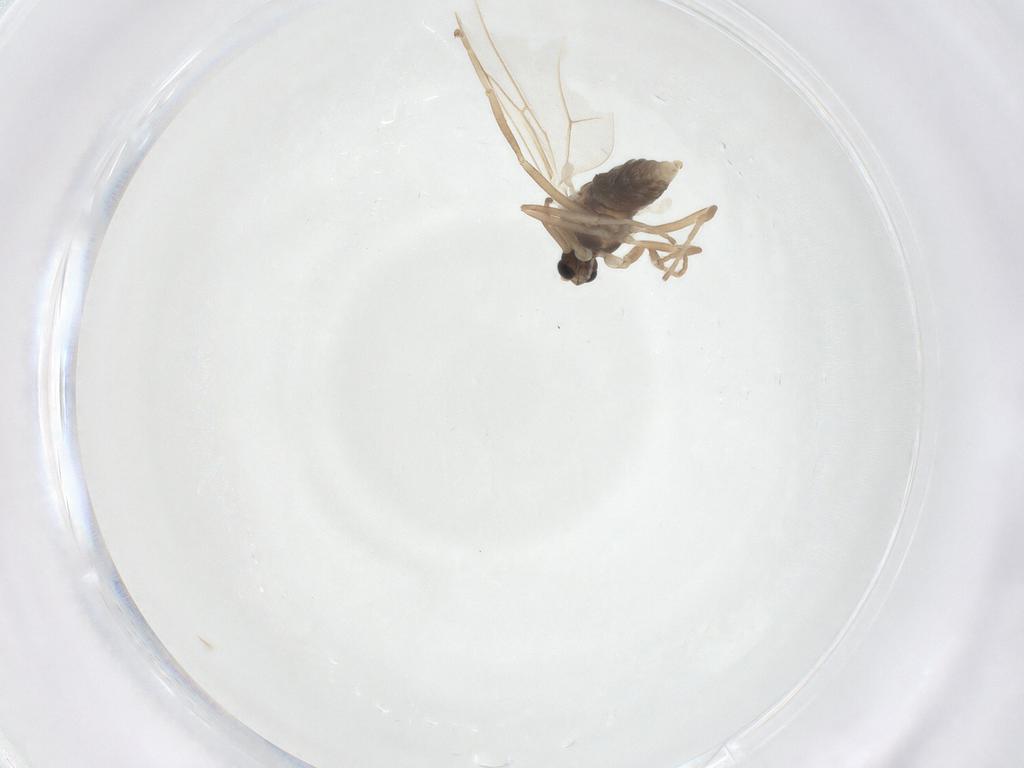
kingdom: Animalia
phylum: Arthropoda
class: Insecta
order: Diptera
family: Cecidomyiidae
